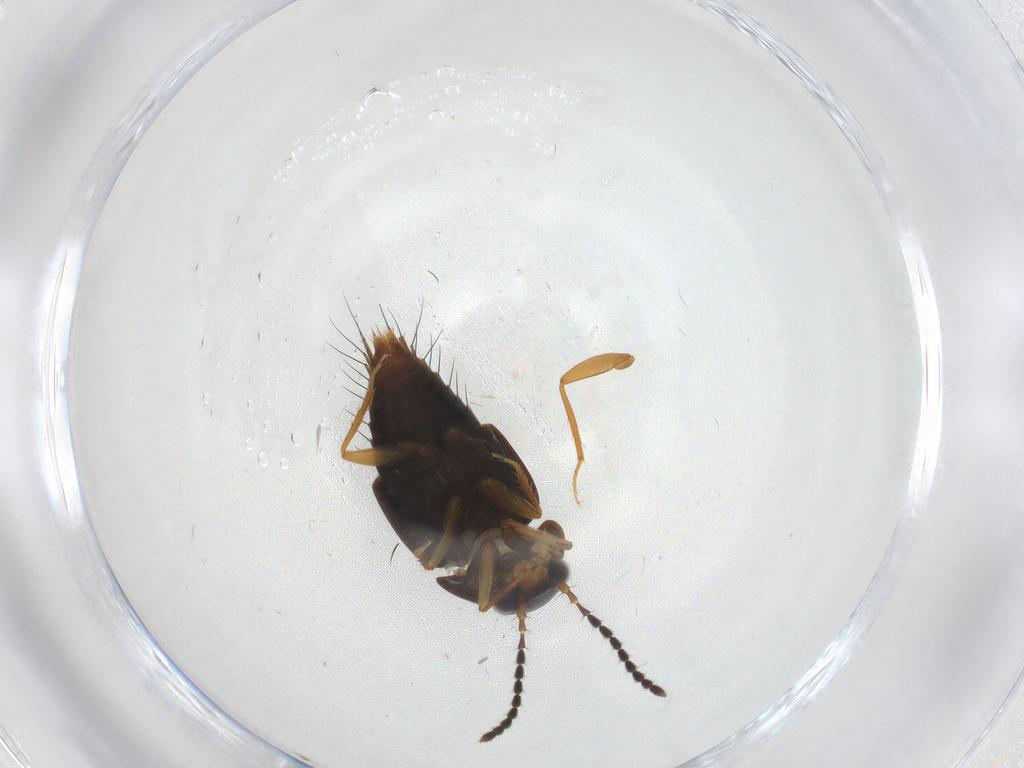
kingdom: Animalia
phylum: Arthropoda
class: Insecta
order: Coleoptera
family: Staphylinidae
